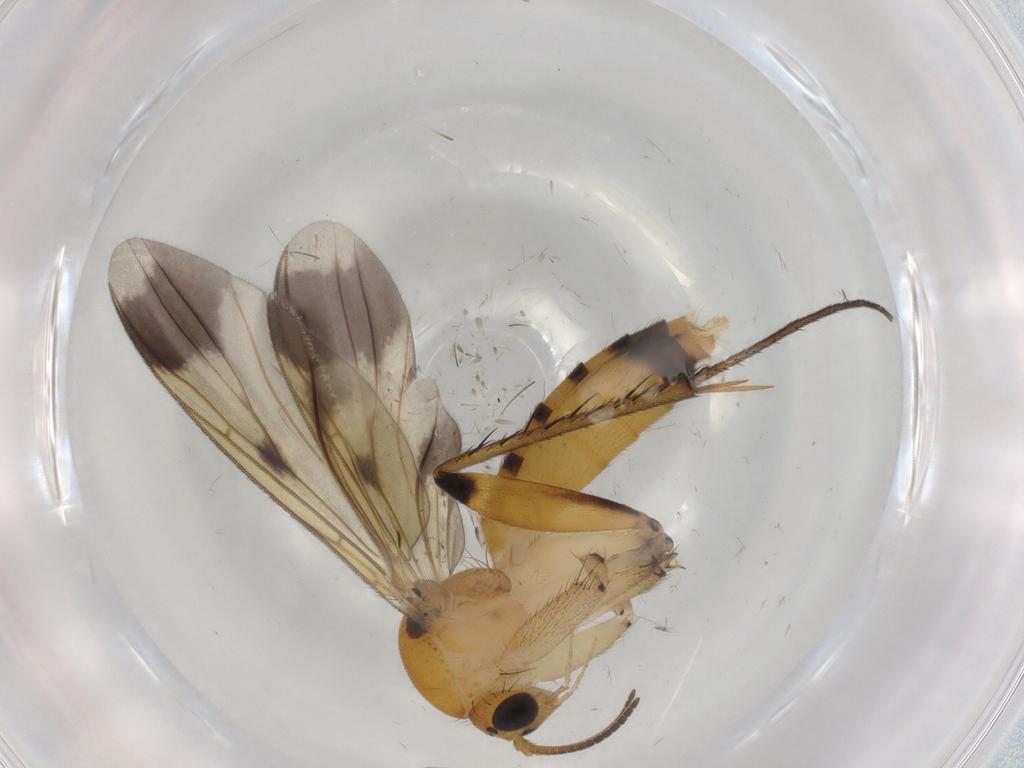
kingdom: Animalia
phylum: Arthropoda
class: Insecta
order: Diptera
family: Mycetophilidae
